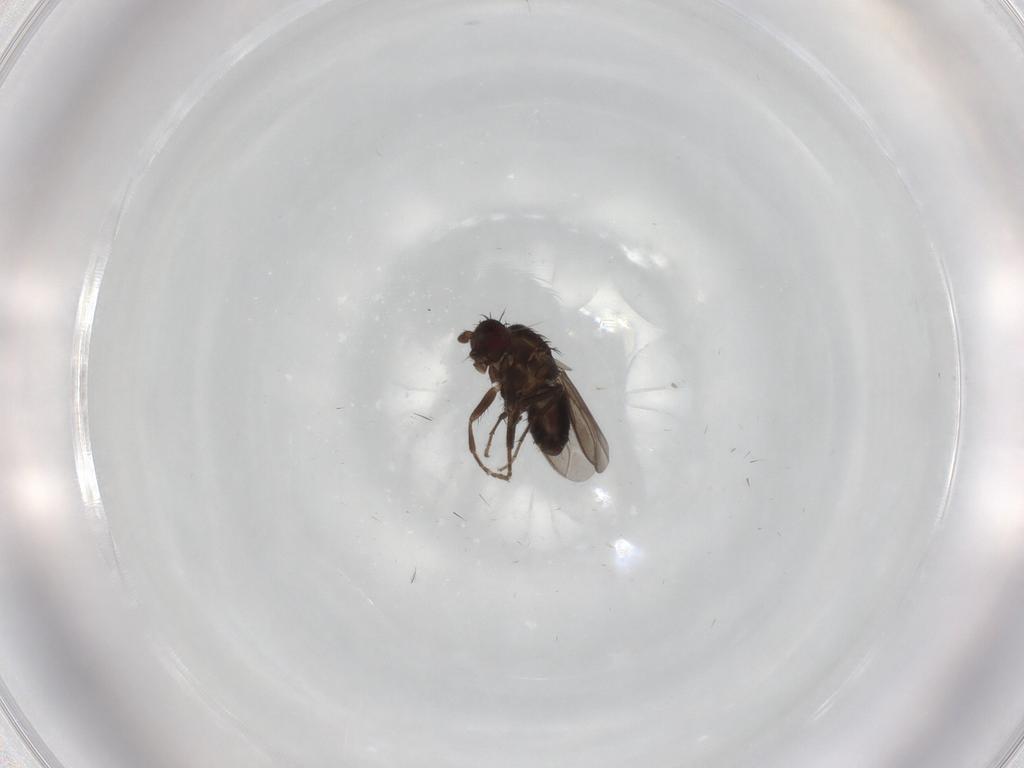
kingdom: Animalia
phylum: Arthropoda
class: Insecta
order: Diptera
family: Sphaeroceridae
